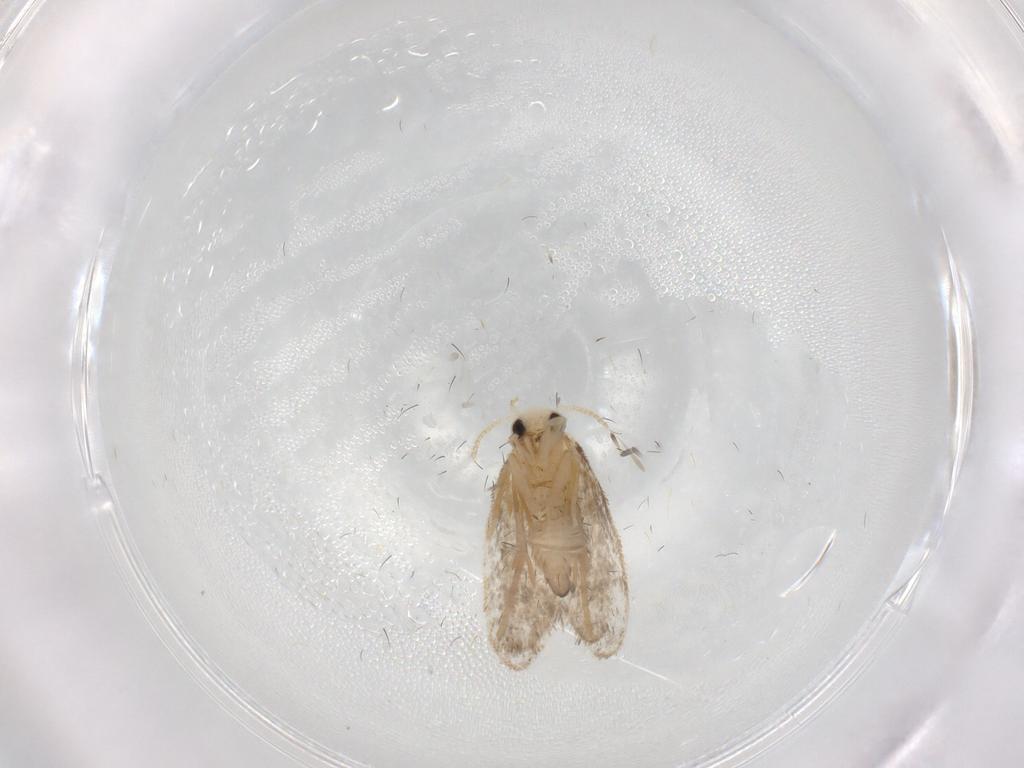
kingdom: Animalia
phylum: Arthropoda
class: Insecta
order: Lepidoptera
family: Psychidae
